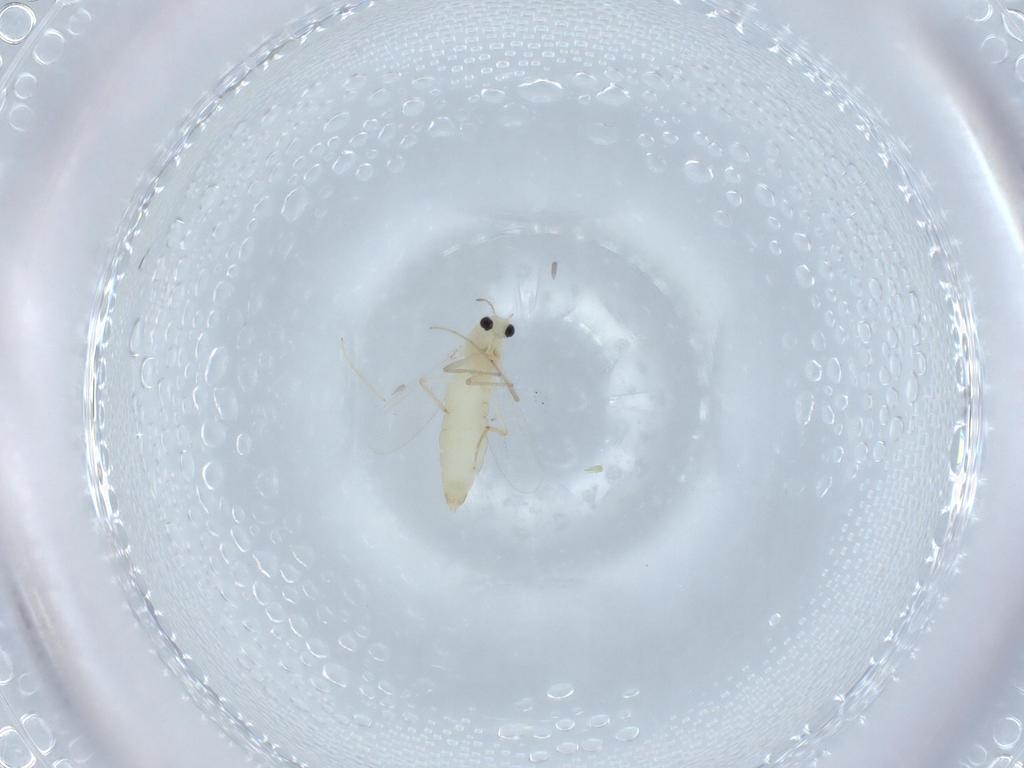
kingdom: Animalia
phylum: Arthropoda
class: Insecta
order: Diptera
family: Chironomidae
